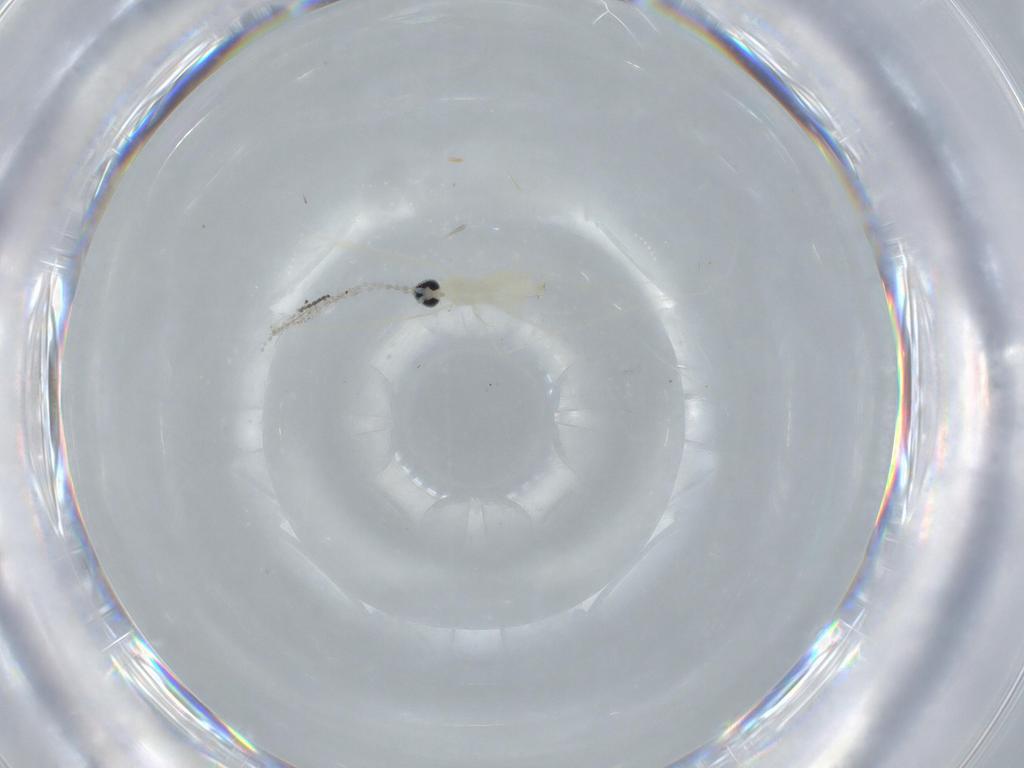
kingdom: Animalia
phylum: Arthropoda
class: Insecta
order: Diptera
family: Cecidomyiidae
